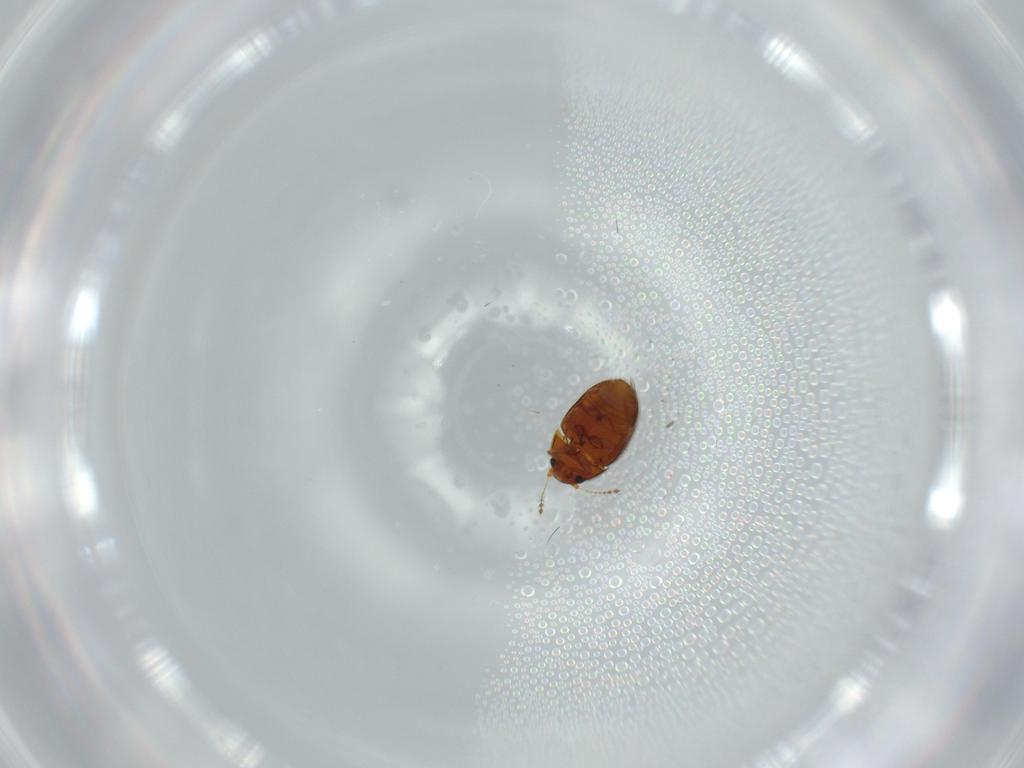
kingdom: Animalia
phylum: Arthropoda
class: Insecta
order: Coleoptera
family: Ptiliidae
